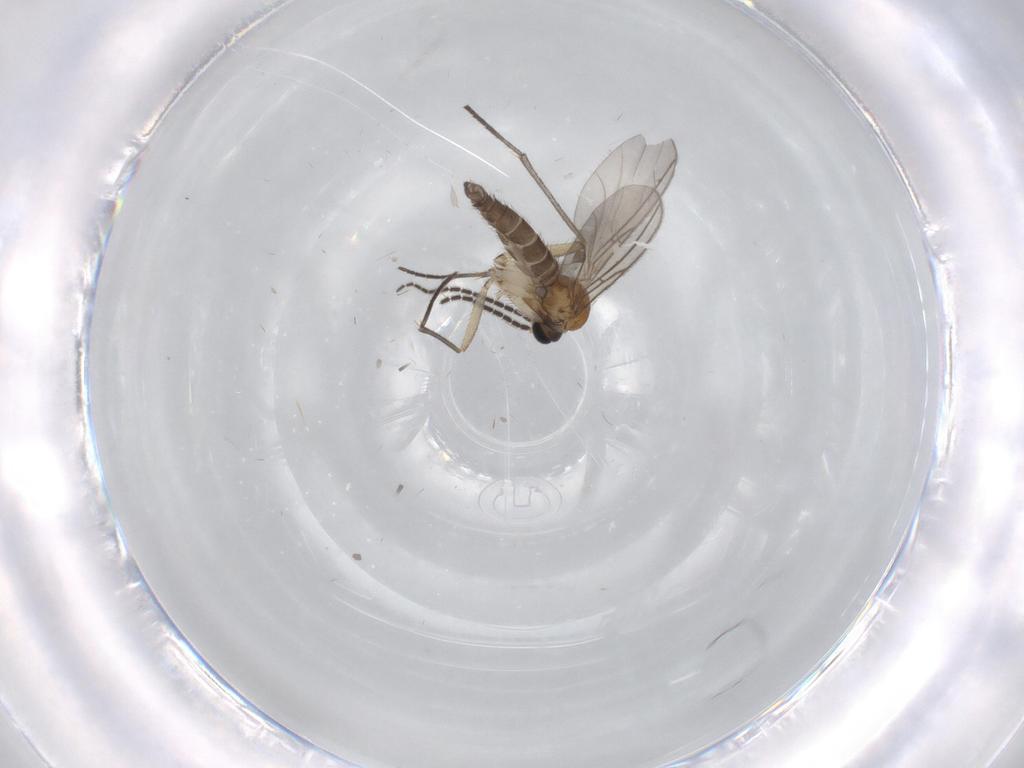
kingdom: Animalia
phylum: Arthropoda
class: Insecta
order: Diptera
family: Sciaridae
